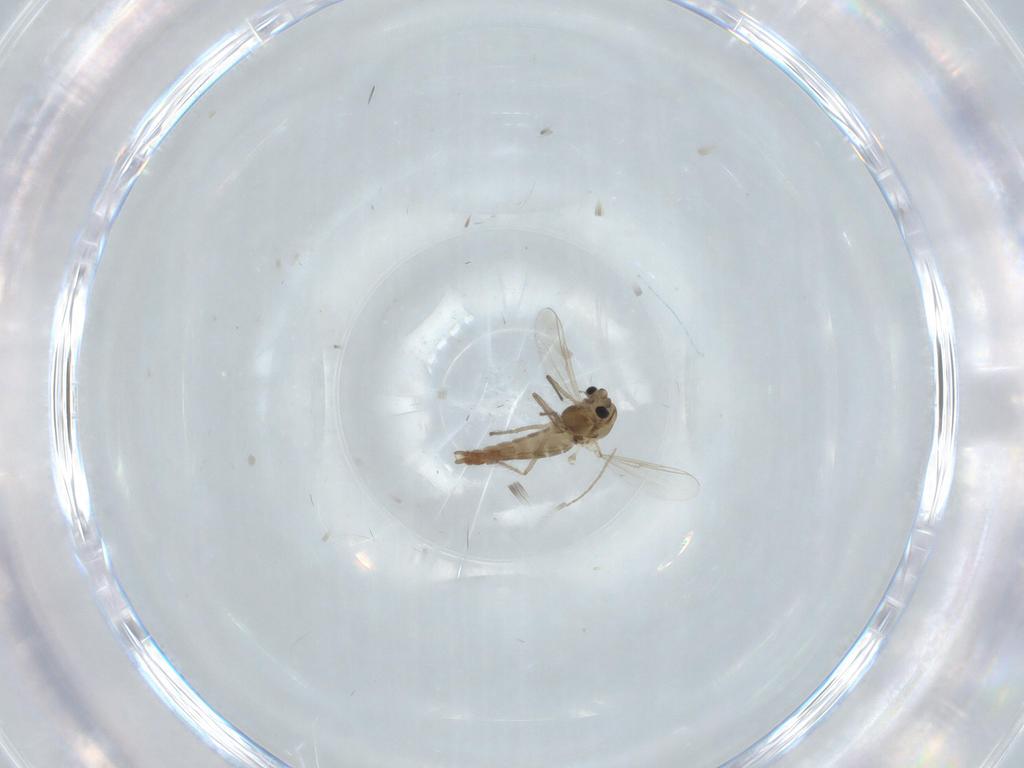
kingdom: Animalia
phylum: Arthropoda
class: Insecta
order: Diptera
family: Chironomidae
